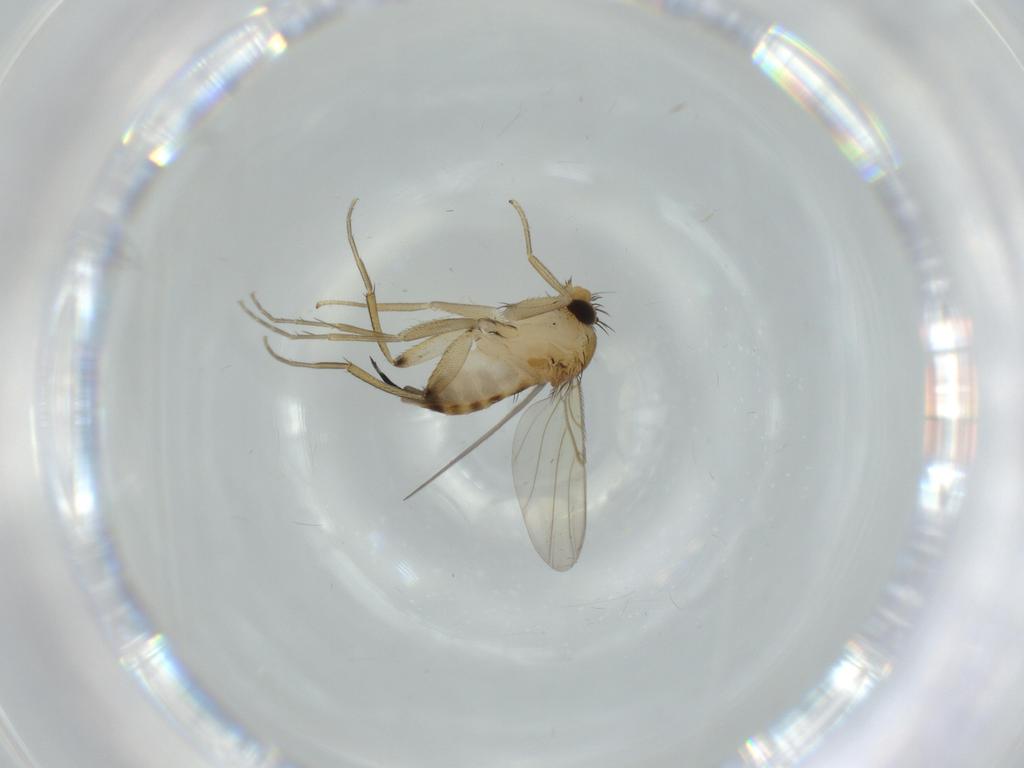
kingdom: Animalia
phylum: Arthropoda
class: Insecta
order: Diptera
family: Phoridae
